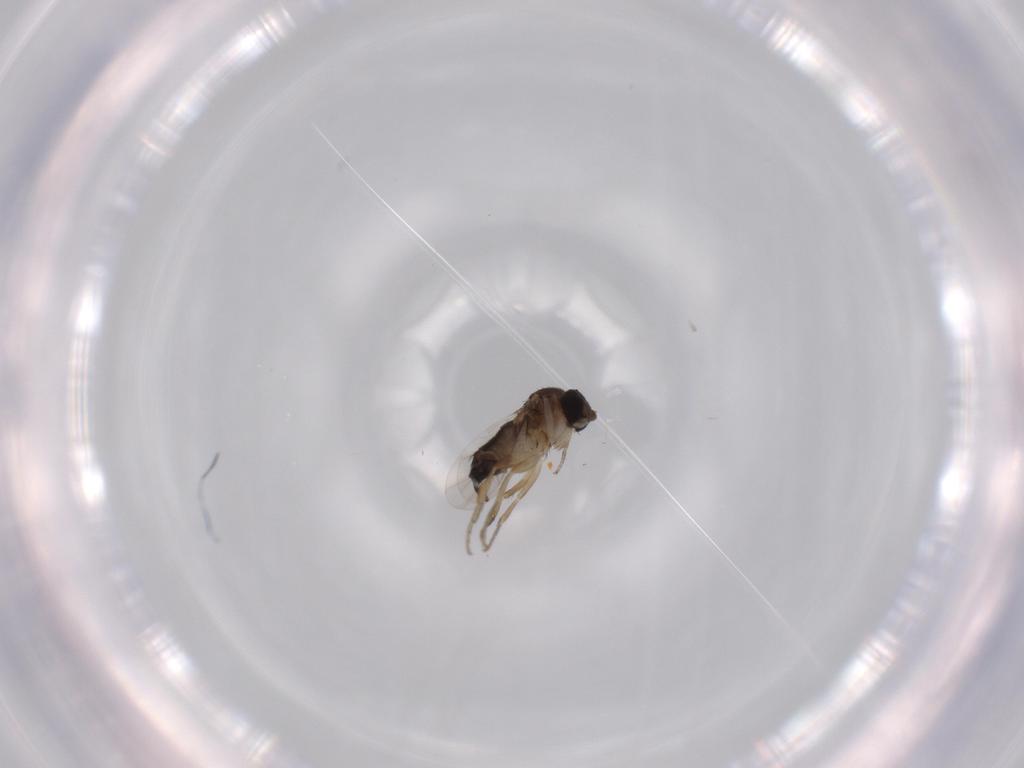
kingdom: Animalia
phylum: Arthropoda
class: Insecta
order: Diptera
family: Phoridae
